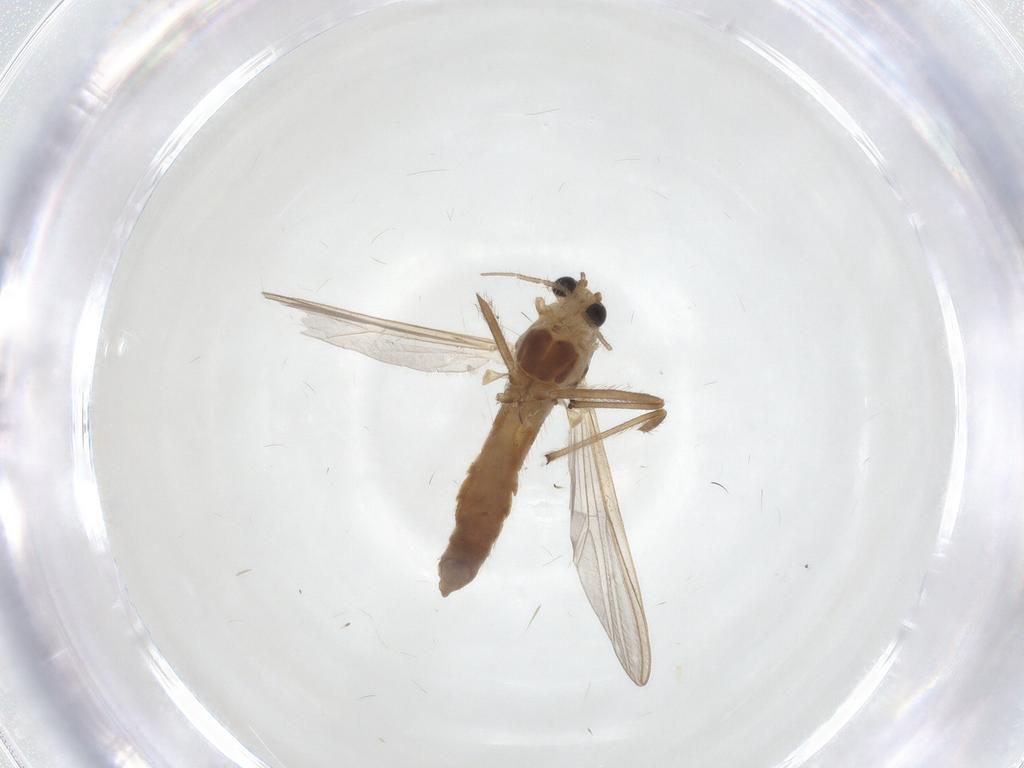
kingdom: Animalia
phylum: Arthropoda
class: Insecta
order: Diptera
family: Chironomidae
